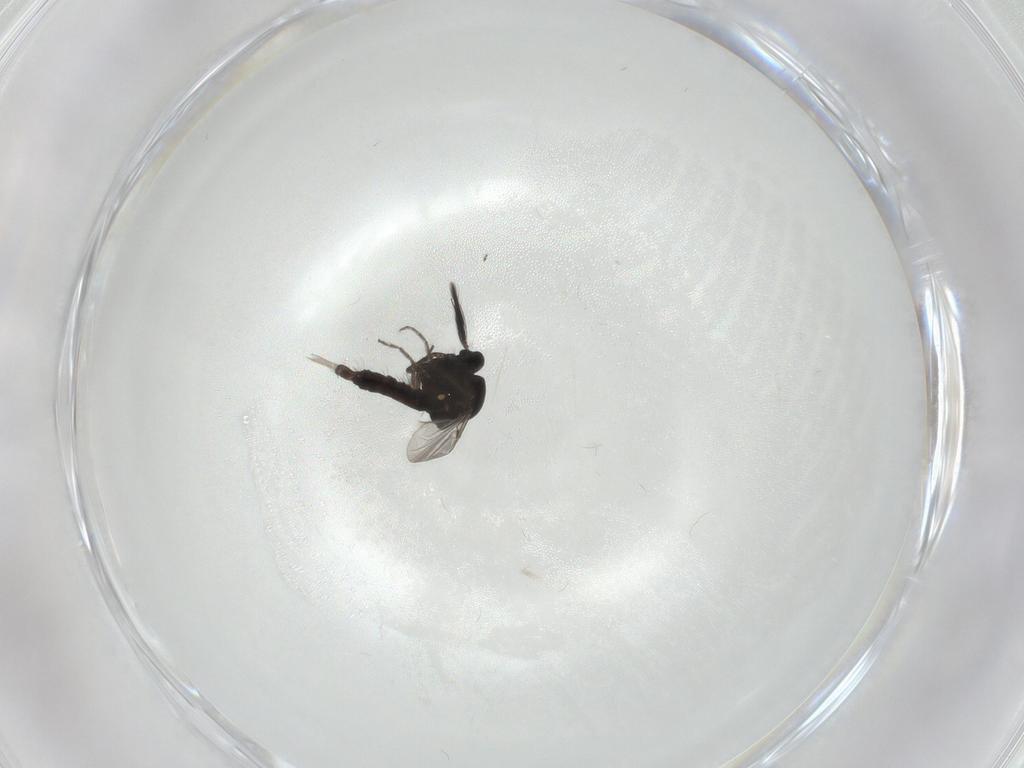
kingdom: Animalia
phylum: Arthropoda
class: Insecta
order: Diptera
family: Ceratopogonidae
